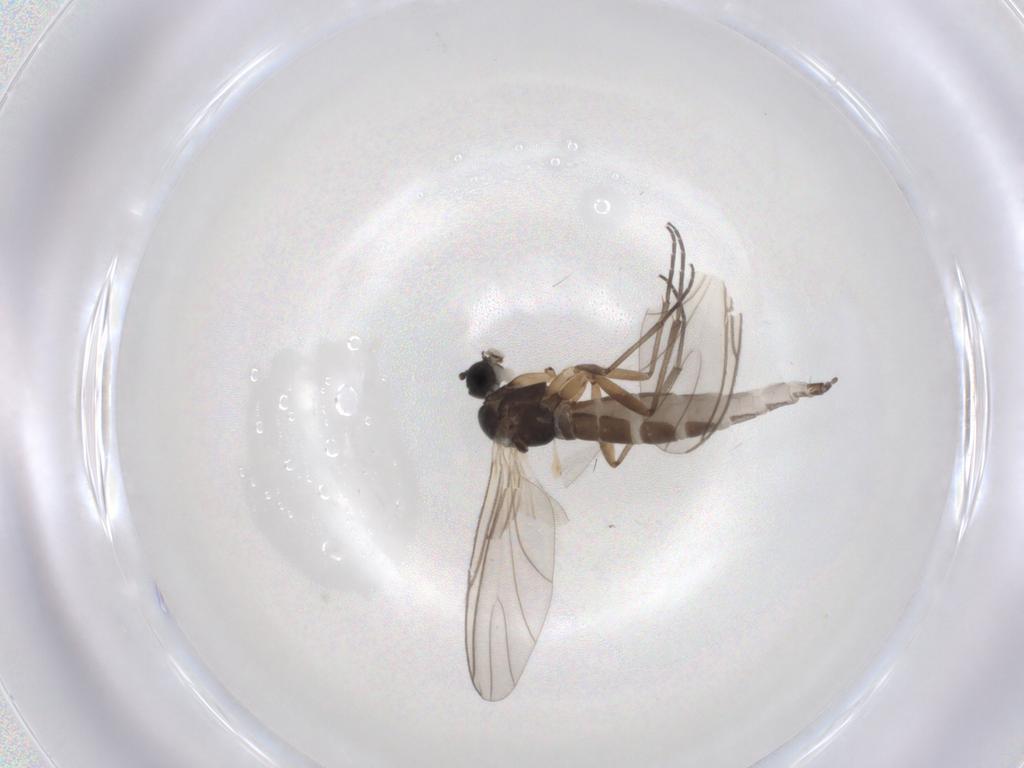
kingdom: Animalia
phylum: Arthropoda
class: Insecta
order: Diptera
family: Sciaridae
